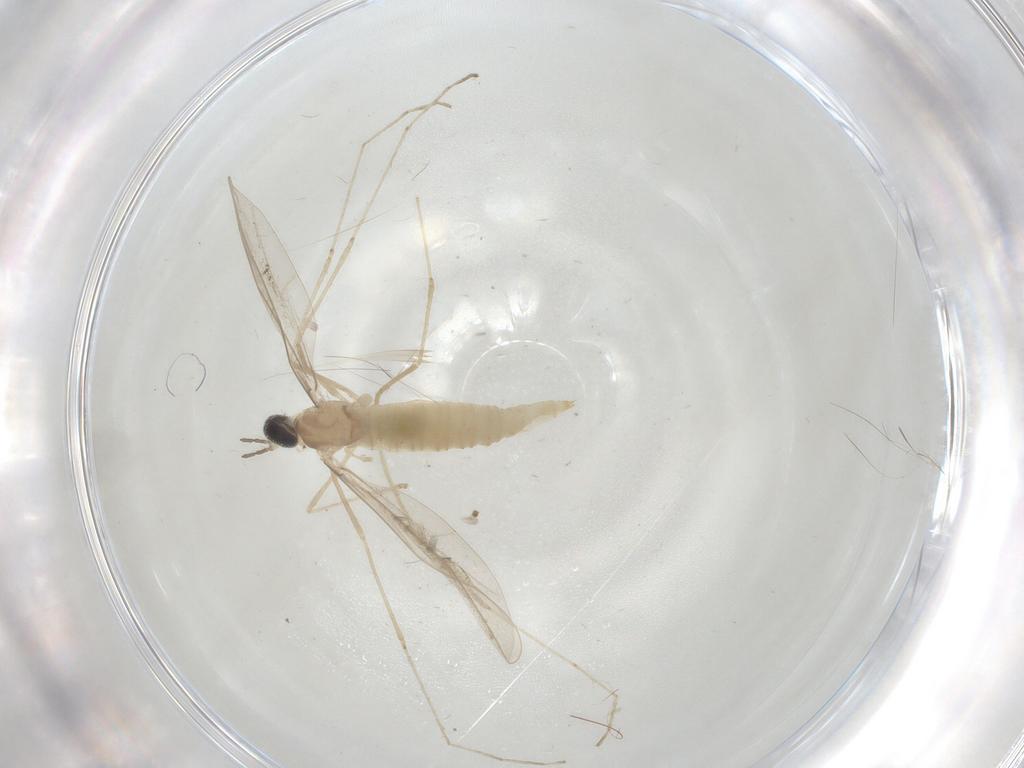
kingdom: Animalia
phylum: Arthropoda
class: Insecta
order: Diptera
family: Cecidomyiidae
